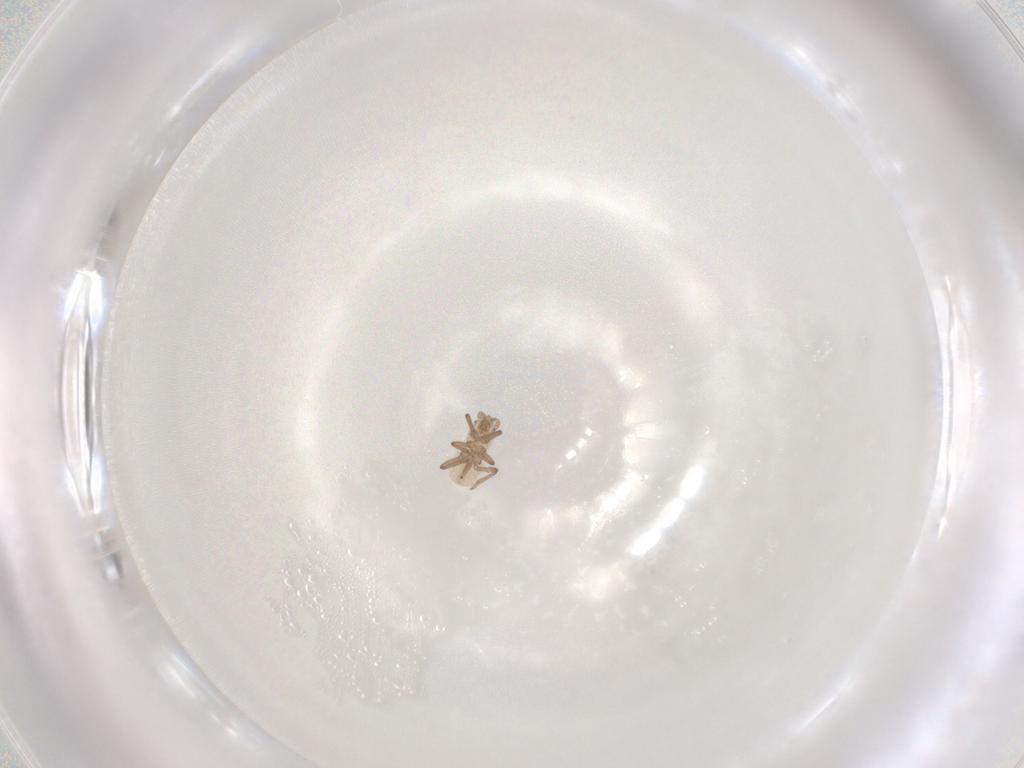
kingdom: Animalia
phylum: Arthropoda
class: Insecta
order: Hemiptera
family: Aphididae
